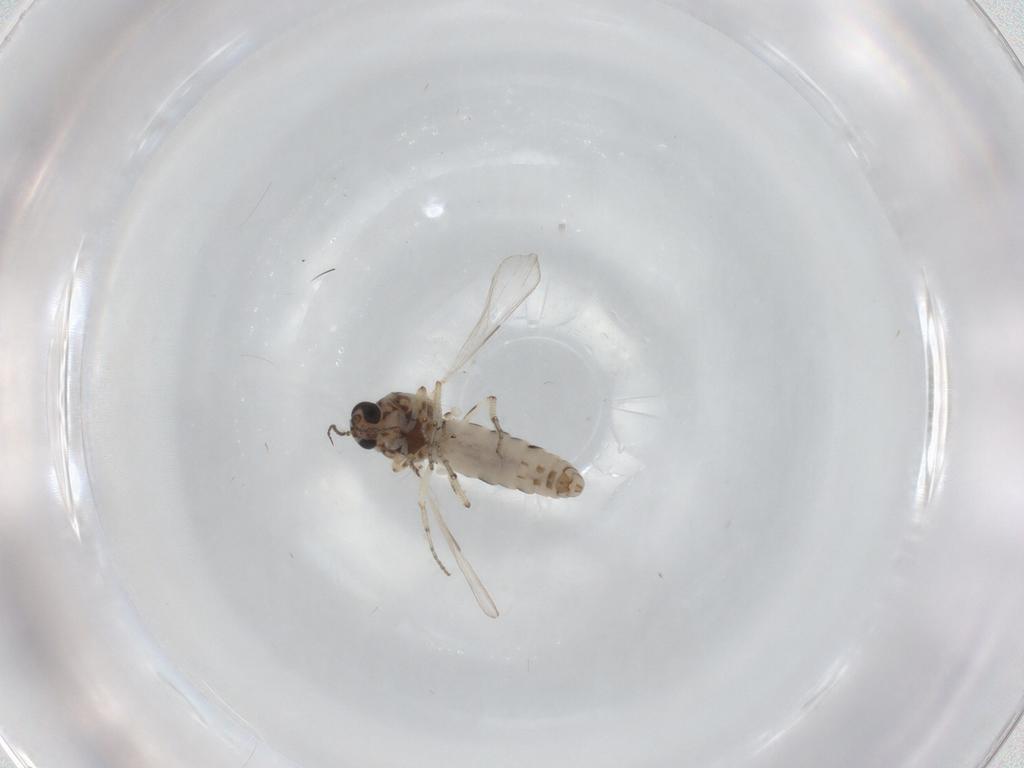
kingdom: Animalia
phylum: Arthropoda
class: Insecta
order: Diptera
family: Ceratopogonidae
